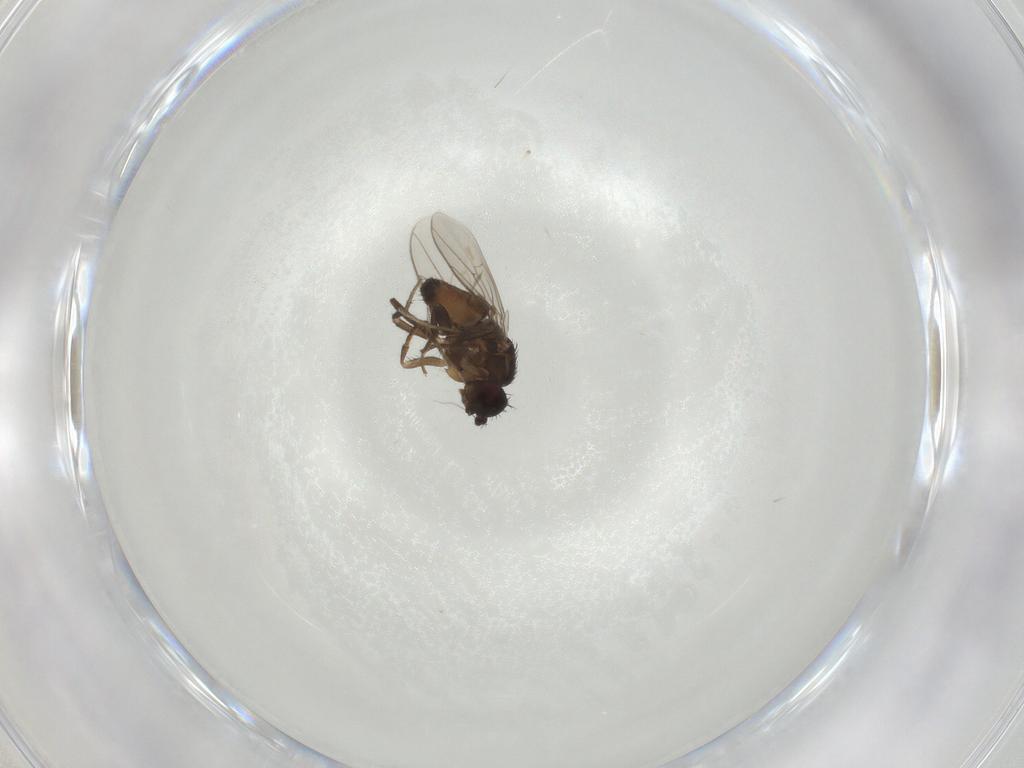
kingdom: Animalia
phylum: Arthropoda
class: Insecta
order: Diptera
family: Sphaeroceridae
